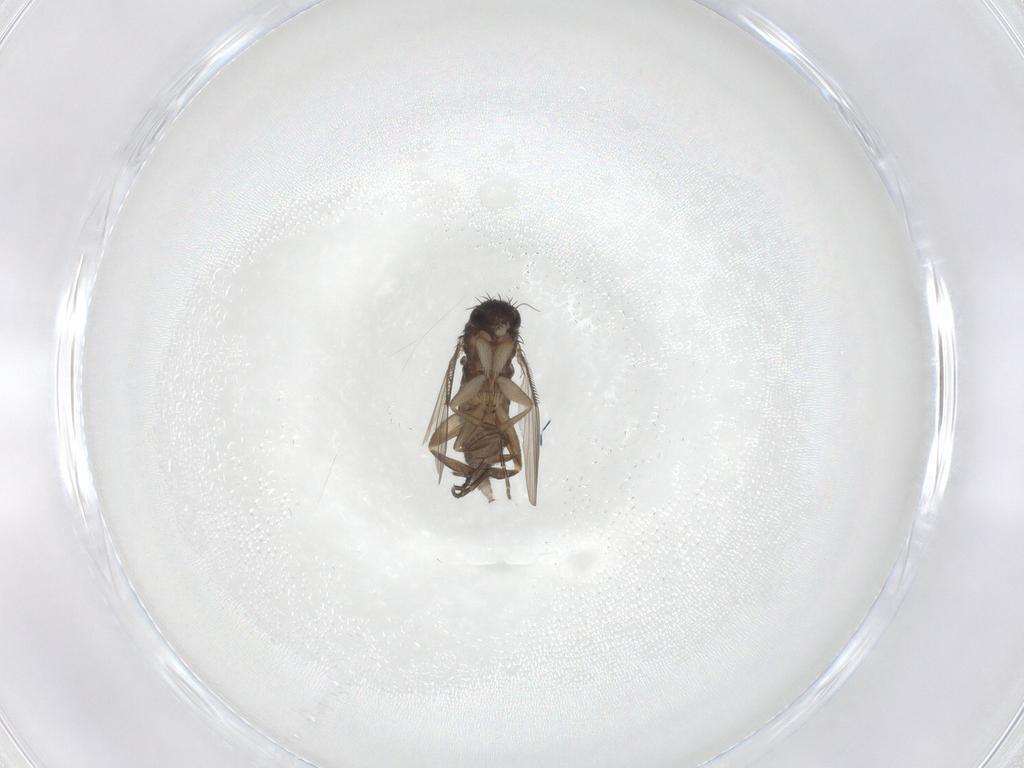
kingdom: Animalia
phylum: Arthropoda
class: Insecta
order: Diptera
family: Phoridae
